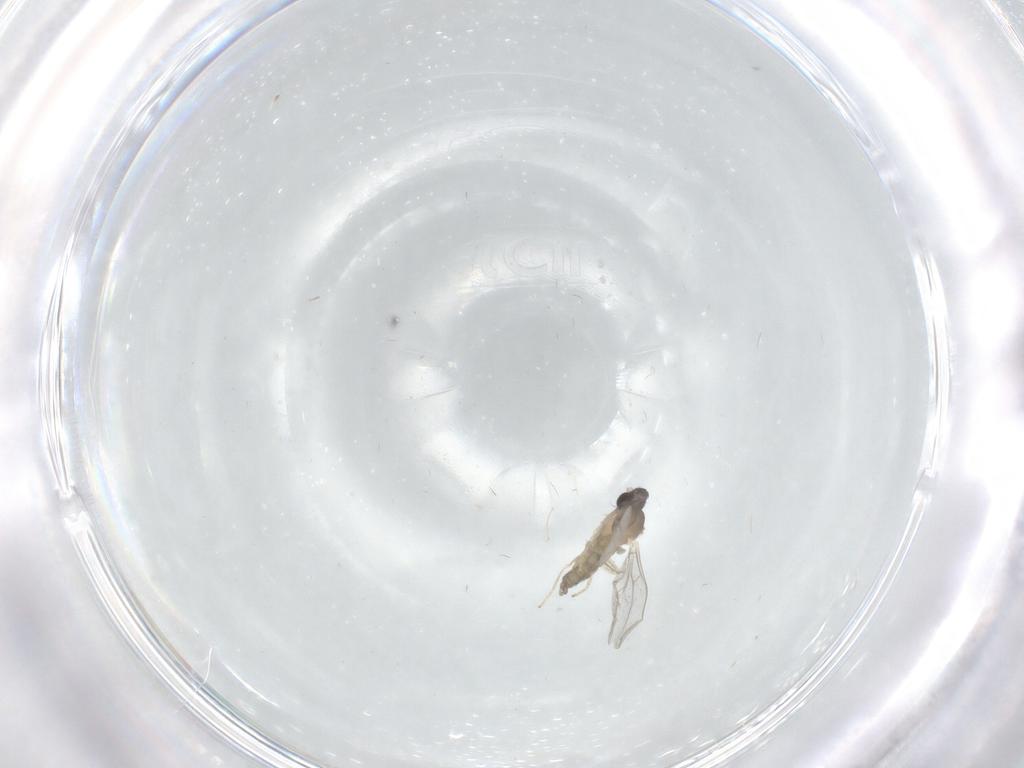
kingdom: Animalia
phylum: Arthropoda
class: Insecta
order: Diptera
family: Cecidomyiidae
